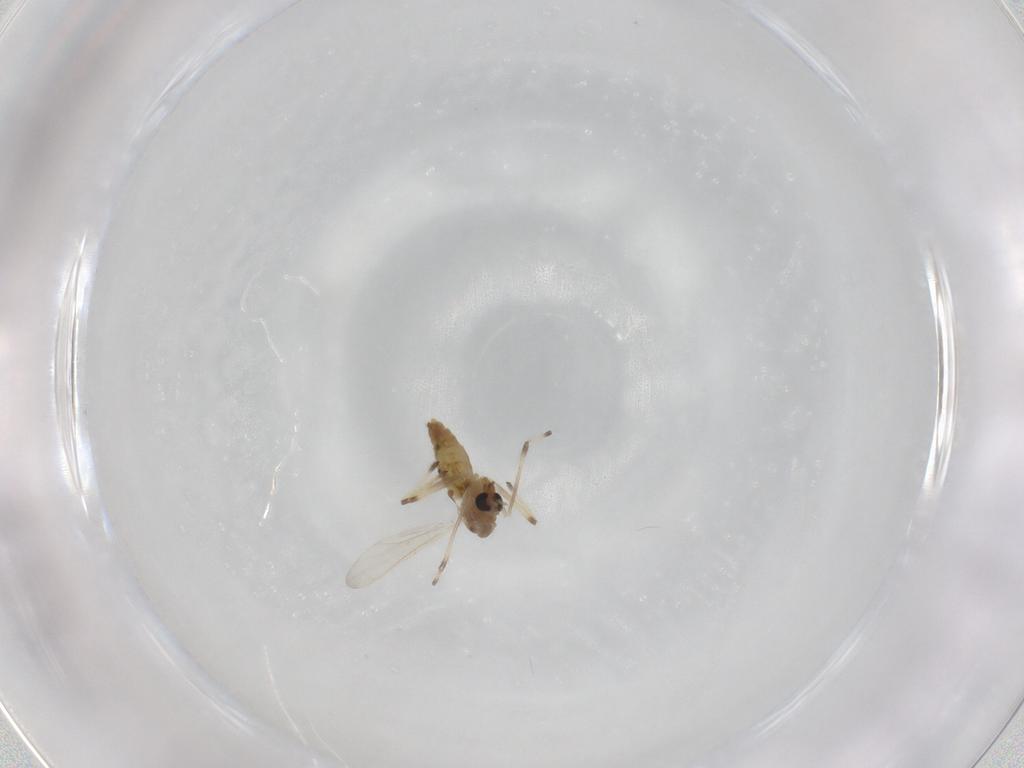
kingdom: Animalia
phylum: Arthropoda
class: Insecta
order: Diptera
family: Chironomidae
